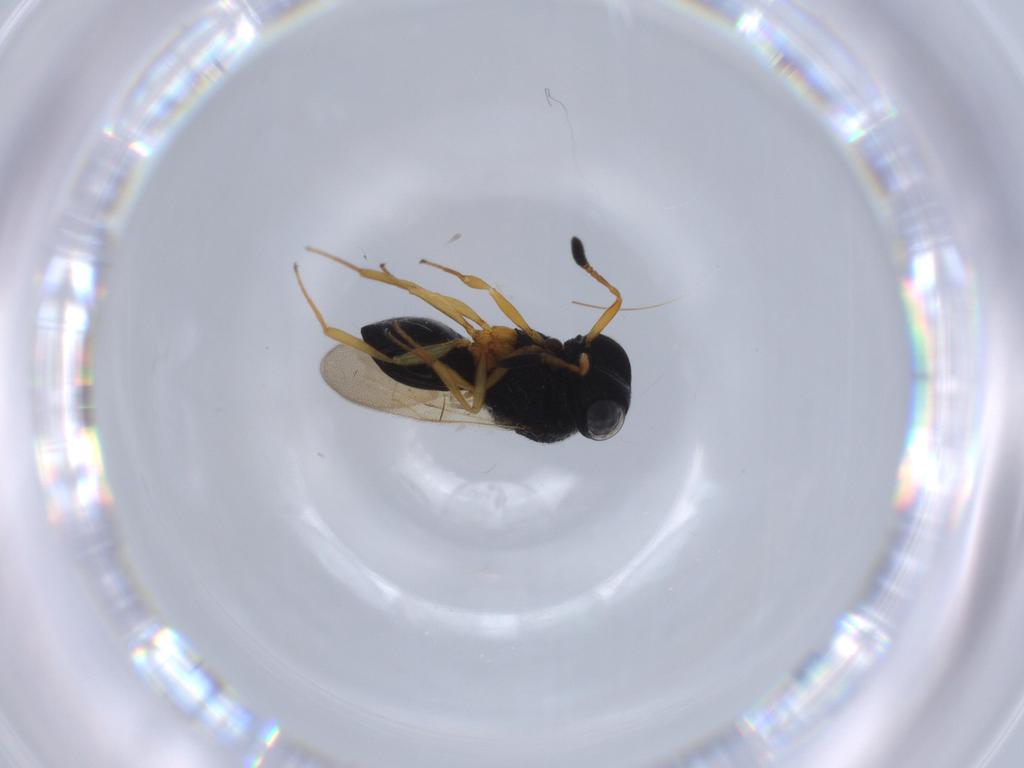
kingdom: Animalia
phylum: Arthropoda
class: Insecta
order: Hymenoptera
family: Scelionidae
